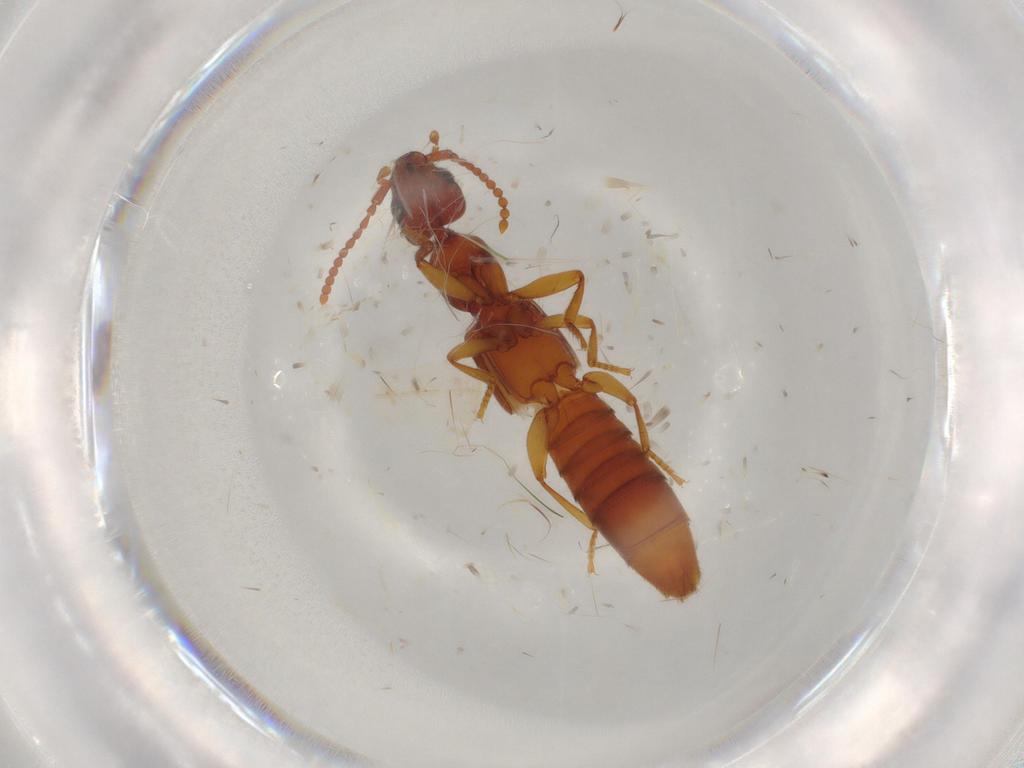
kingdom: Animalia
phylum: Arthropoda
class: Insecta
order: Coleoptera
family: Staphylinidae
